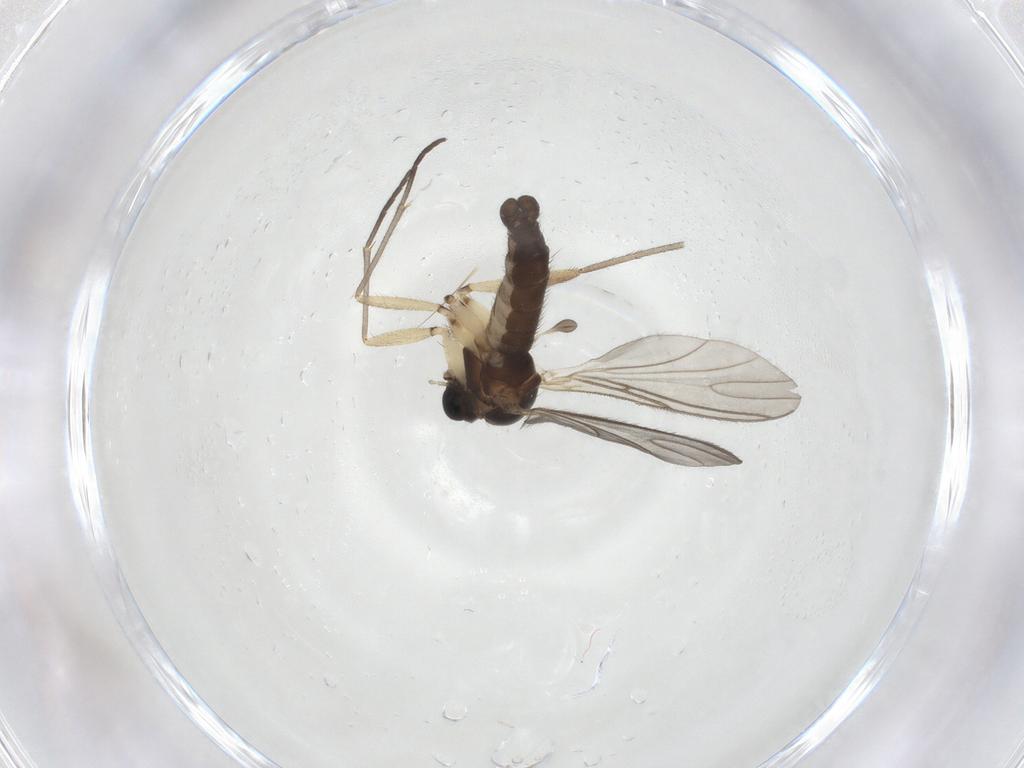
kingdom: Animalia
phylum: Arthropoda
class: Insecta
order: Diptera
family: Sciaridae
